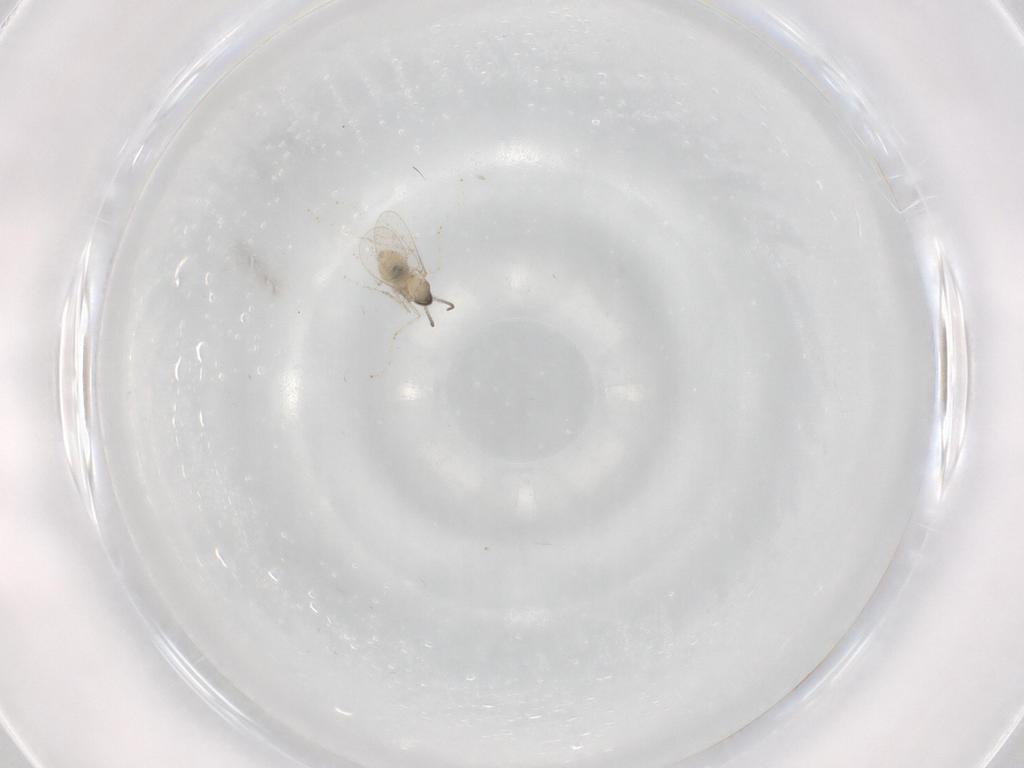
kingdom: Animalia
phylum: Arthropoda
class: Insecta
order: Diptera
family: Cecidomyiidae
